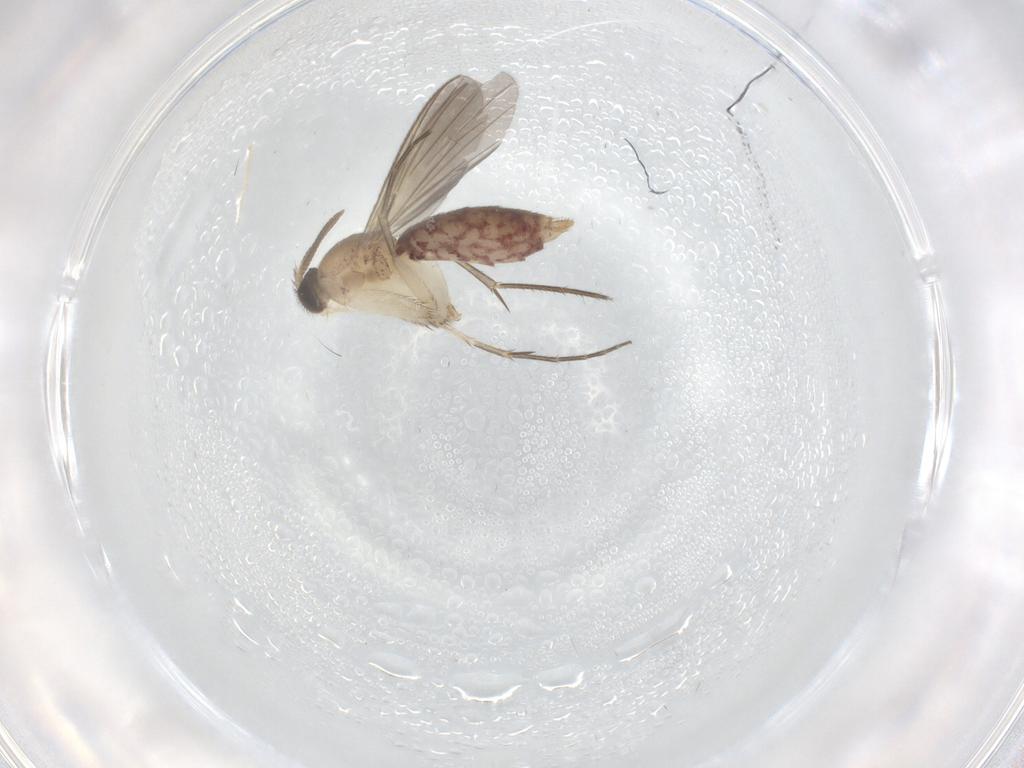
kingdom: Animalia
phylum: Arthropoda
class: Insecta
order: Diptera
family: Mycetophilidae
